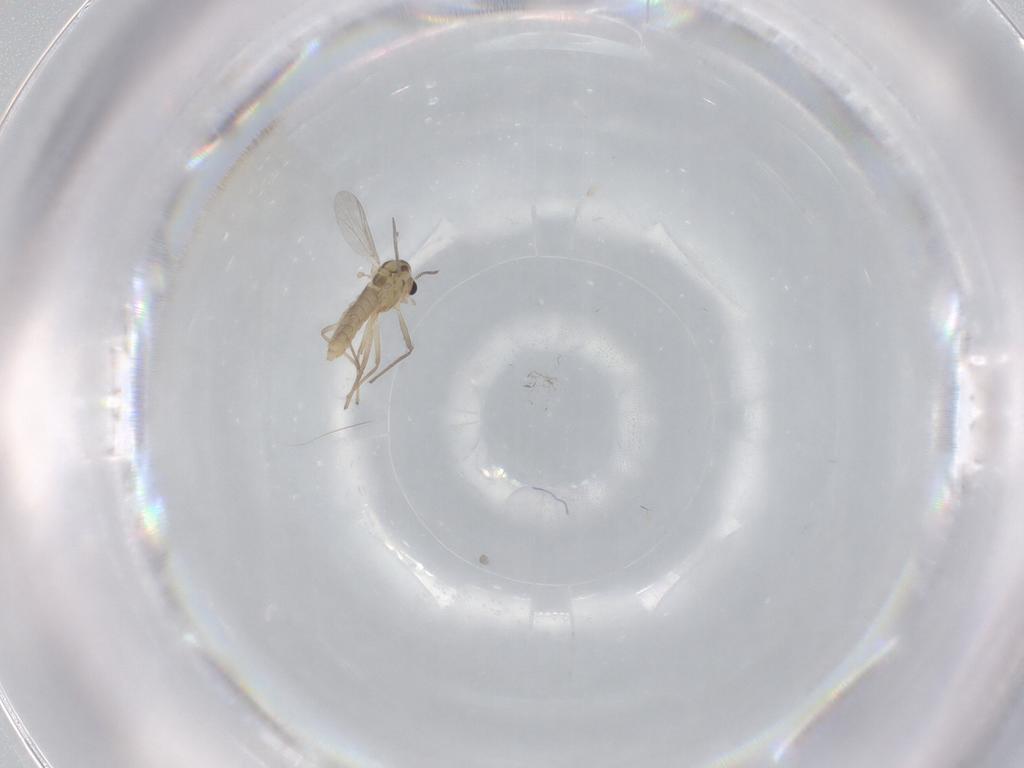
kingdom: Animalia
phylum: Arthropoda
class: Insecta
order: Diptera
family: Chironomidae
